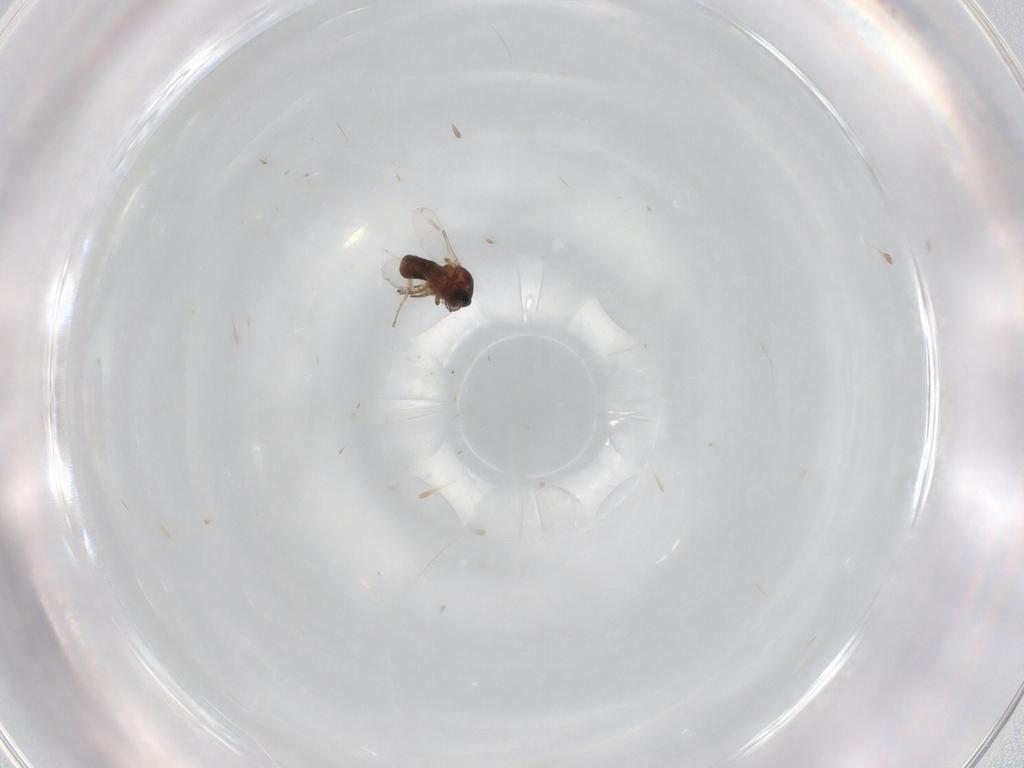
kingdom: Animalia
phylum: Arthropoda
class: Insecta
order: Diptera
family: Ceratopogonidae
